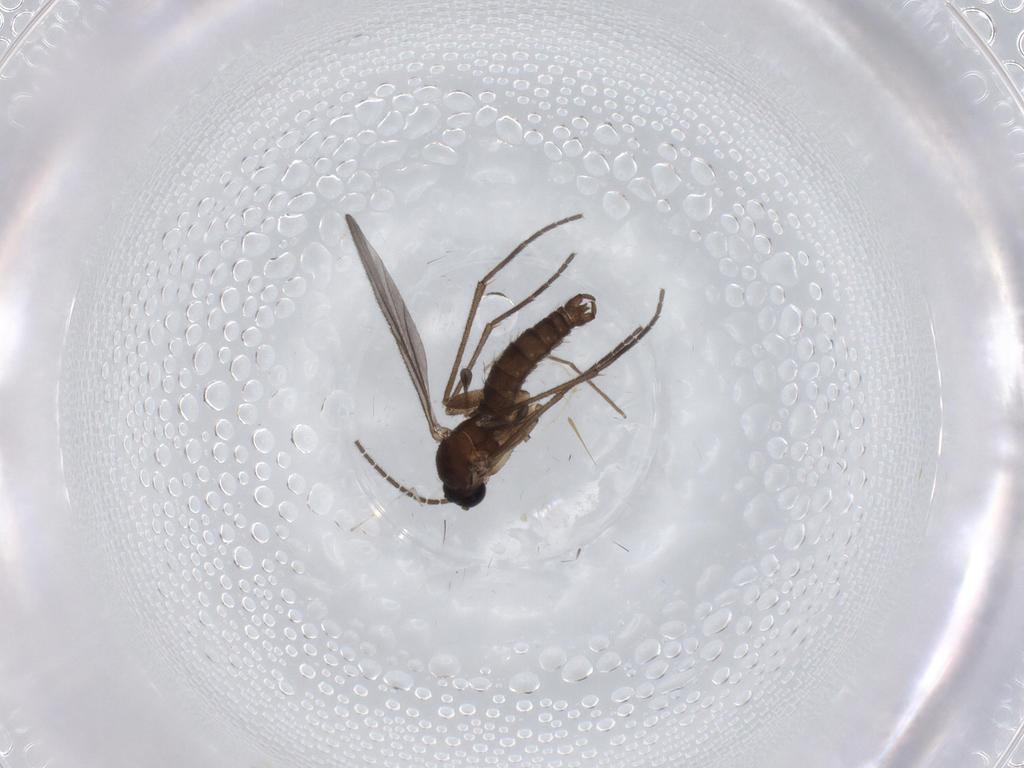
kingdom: Animalia
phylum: Arthropoda
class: Insecta
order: Diptera
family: Chironomidae
